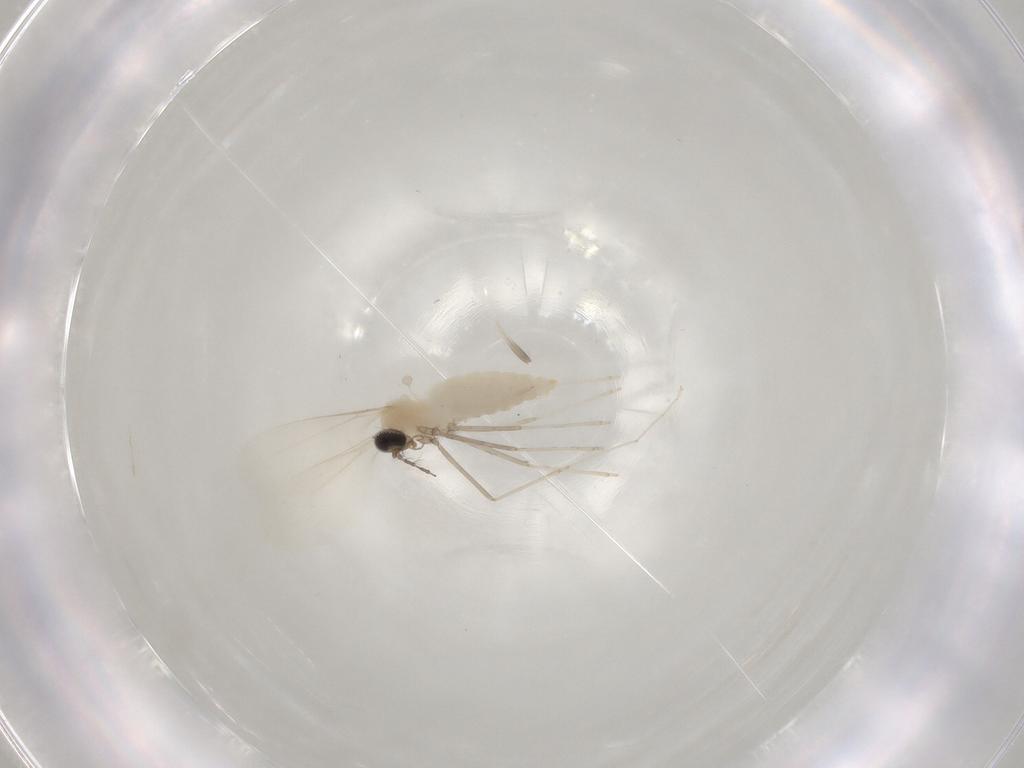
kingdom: Animalia
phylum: Arthropoda
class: Insecta
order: Diptera
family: Cecidomyiidae
